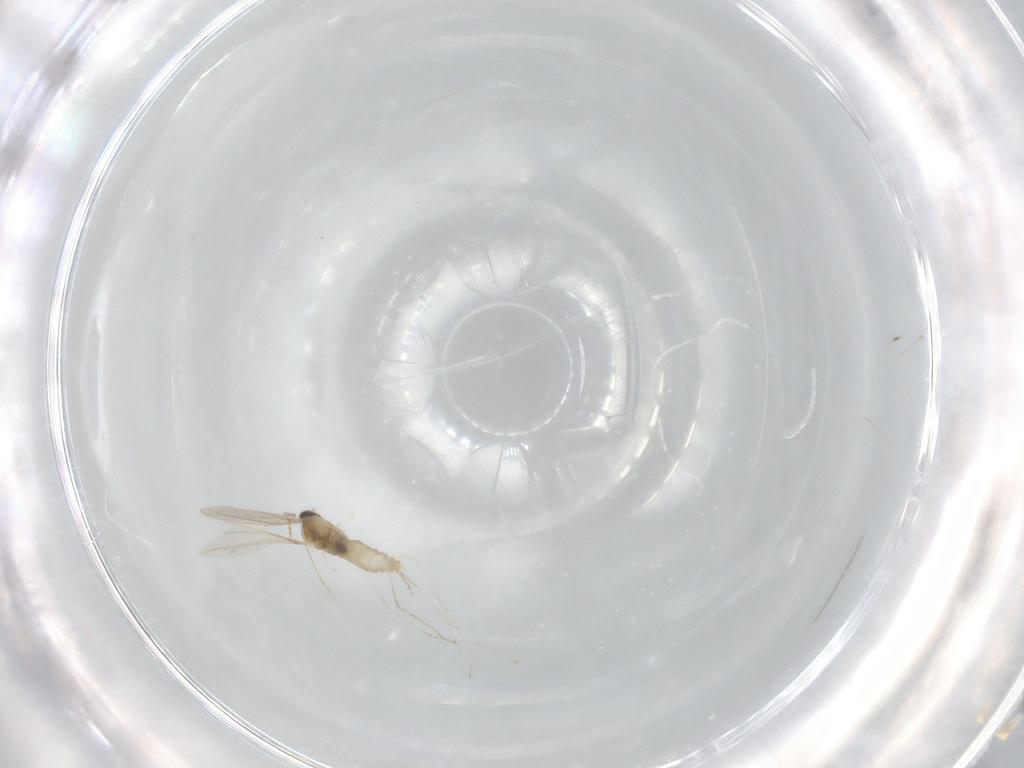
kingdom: Animalia
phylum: Arthropoda
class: Insecta
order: Diptera
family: Cecidomyiidae
